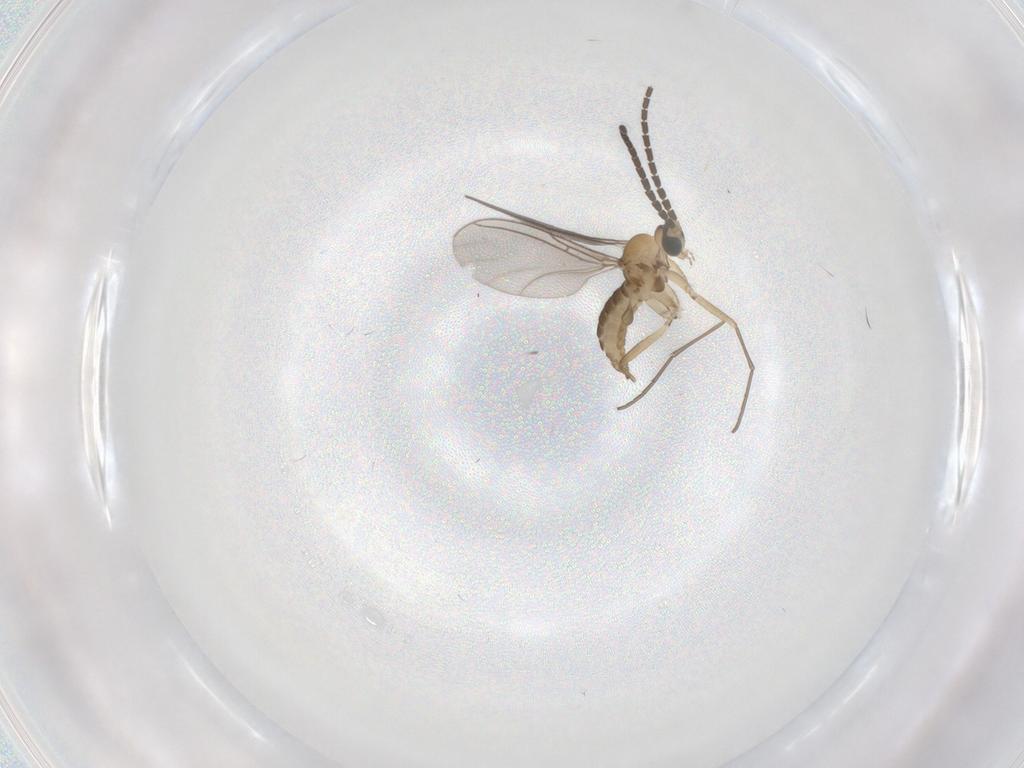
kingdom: Animalia
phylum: Arthropoda
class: Insecta
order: Diptera
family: Sciaridae
